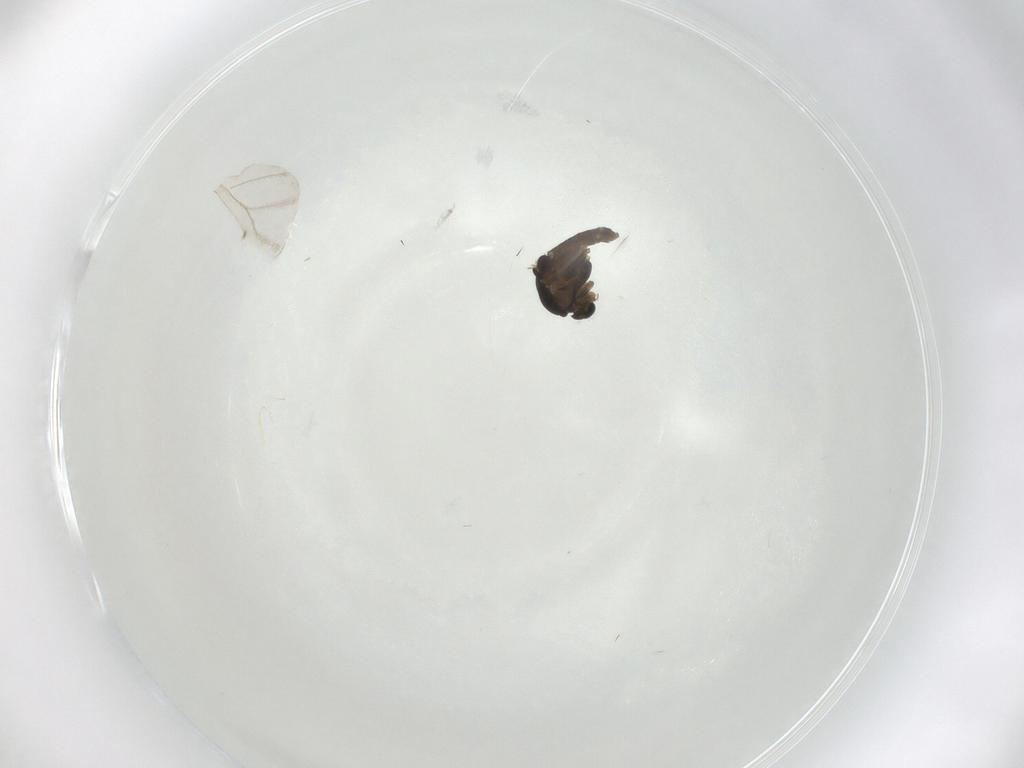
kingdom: Animalia
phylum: Arthropoda
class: Insecta
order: Diptera
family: Chironomidae
